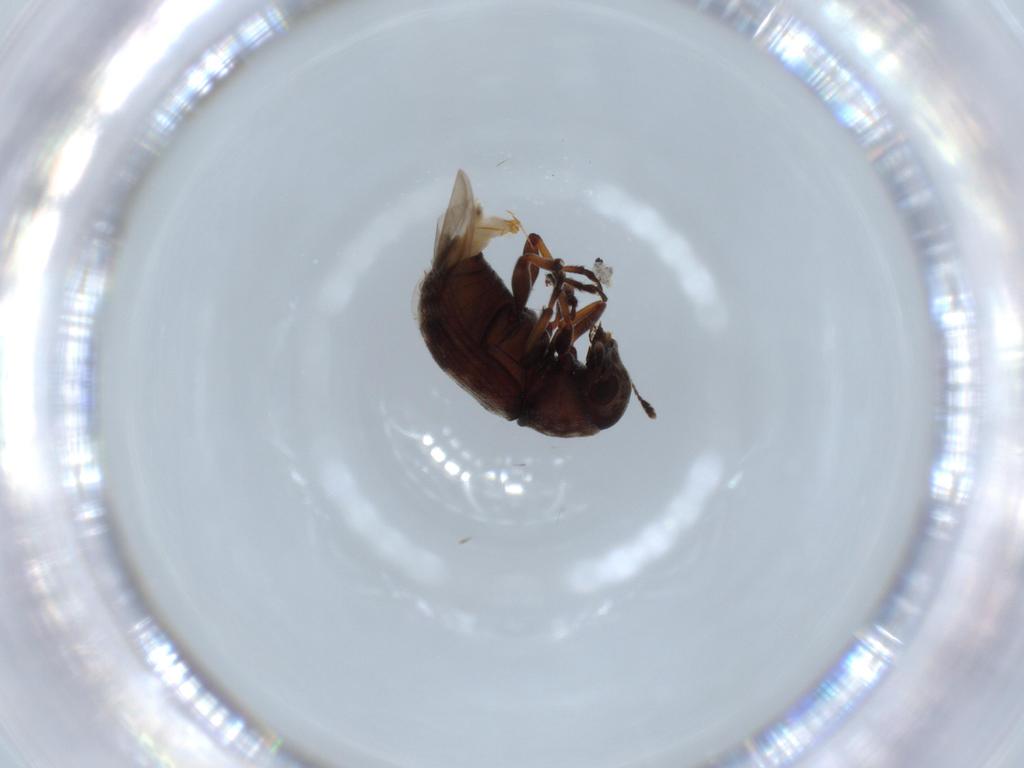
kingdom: Animalia
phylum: Arthropoda
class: Insecta
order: Coleoptera
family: Anthribidae
